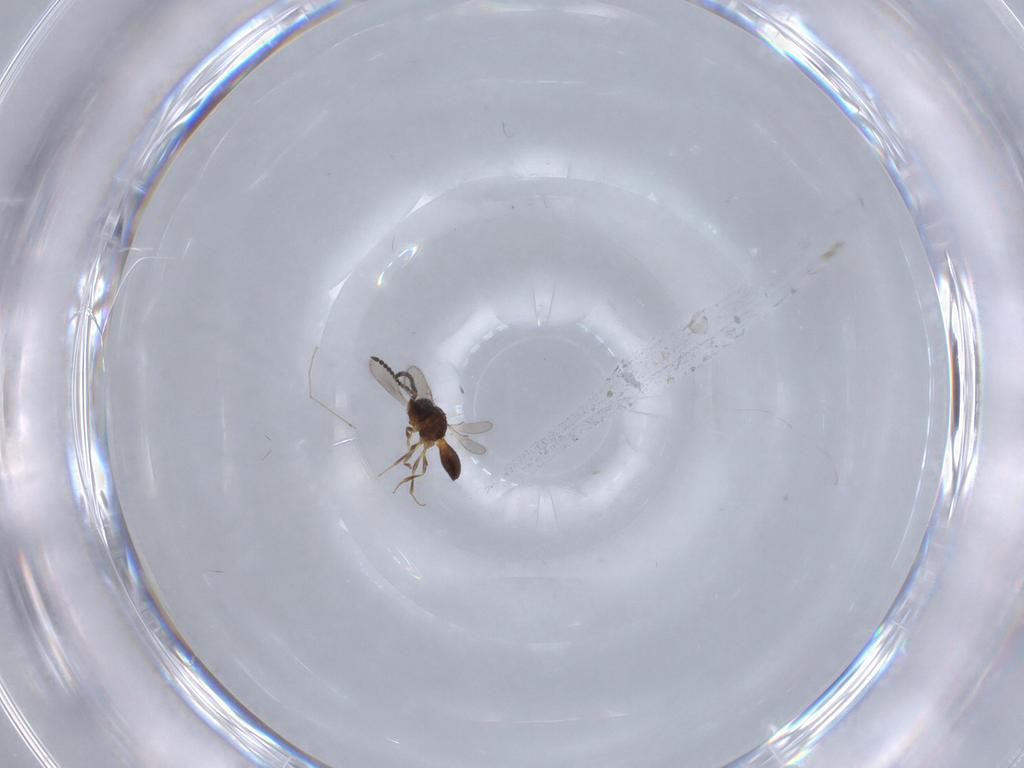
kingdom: Animalia
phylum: Arthropoda
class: Insecta
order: Hymenoptera
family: Scelionidae
